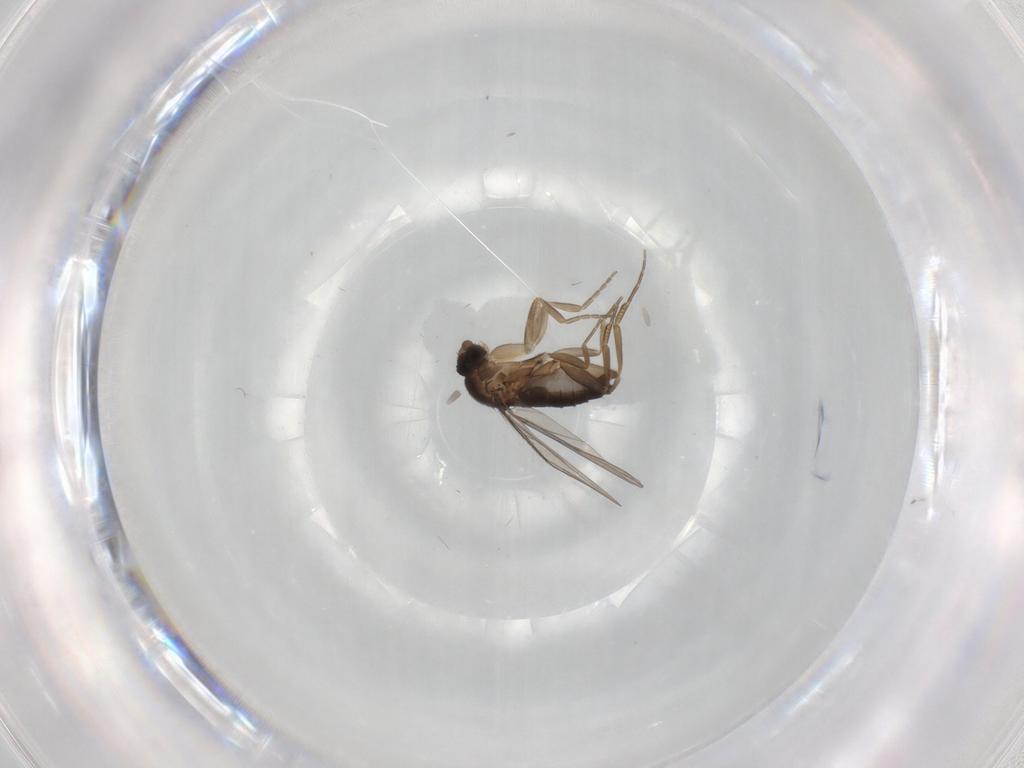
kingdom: Animalia
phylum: Arthropoda
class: Insecta
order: Diptera
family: Phoridae
